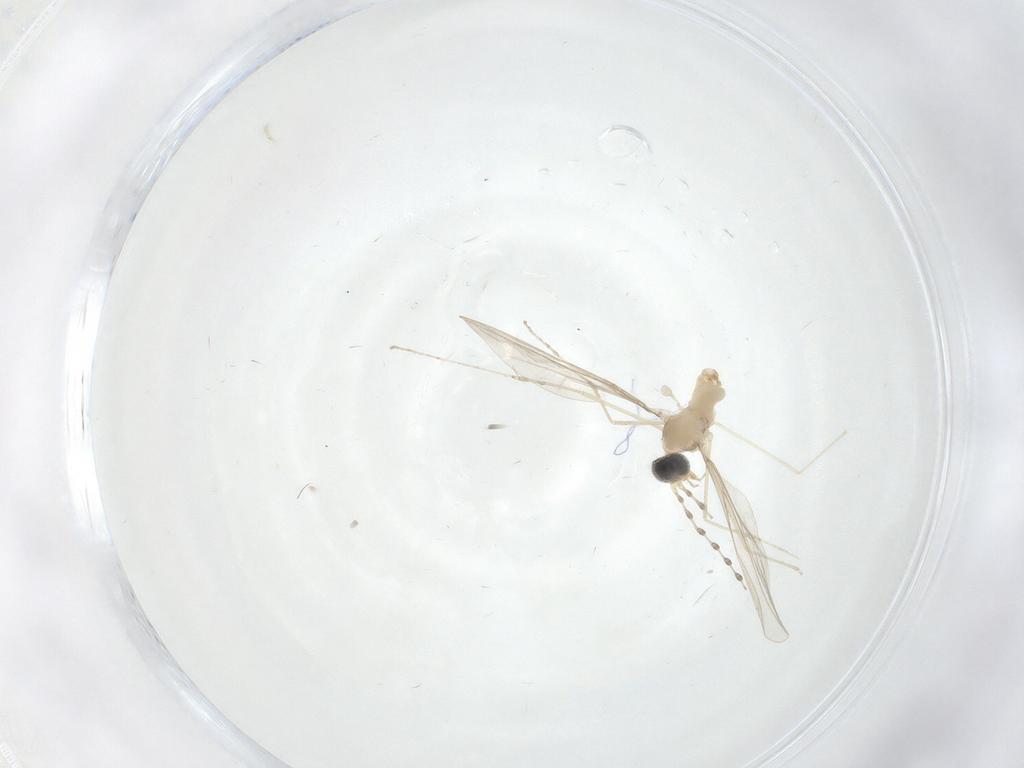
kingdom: Animalia
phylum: Arthropoda
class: Insecta
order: Diptera
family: Cecidomyiidae
